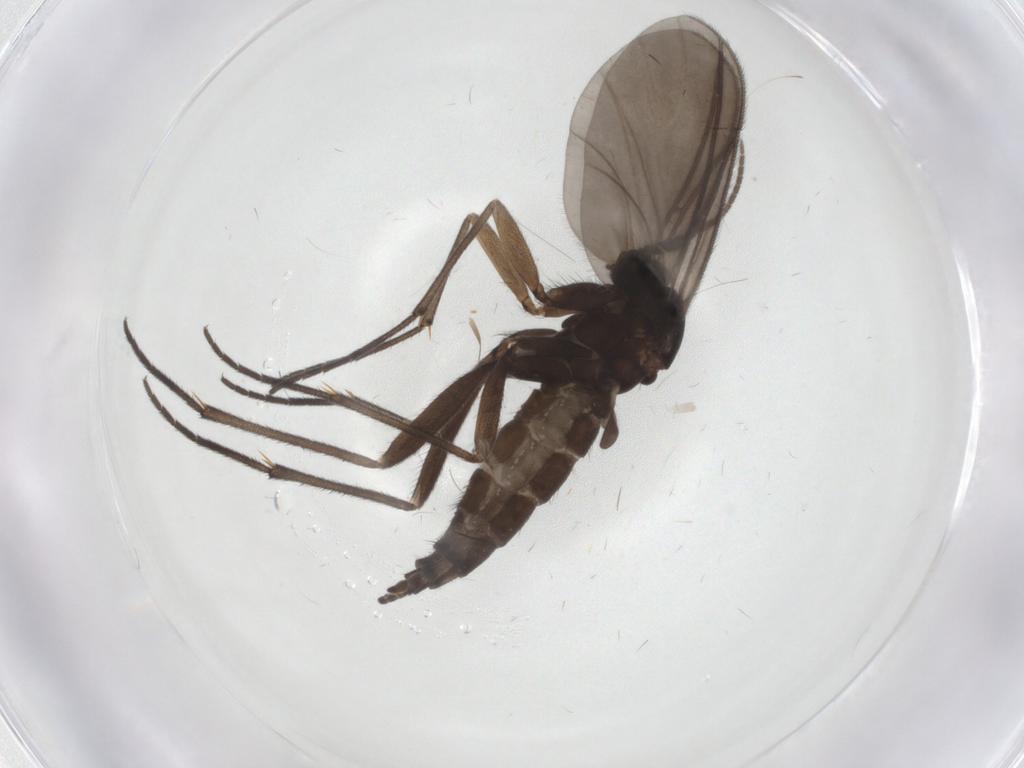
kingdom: Animalia
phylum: Arthropoda
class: Insecta
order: Diptera
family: Sciaridae
